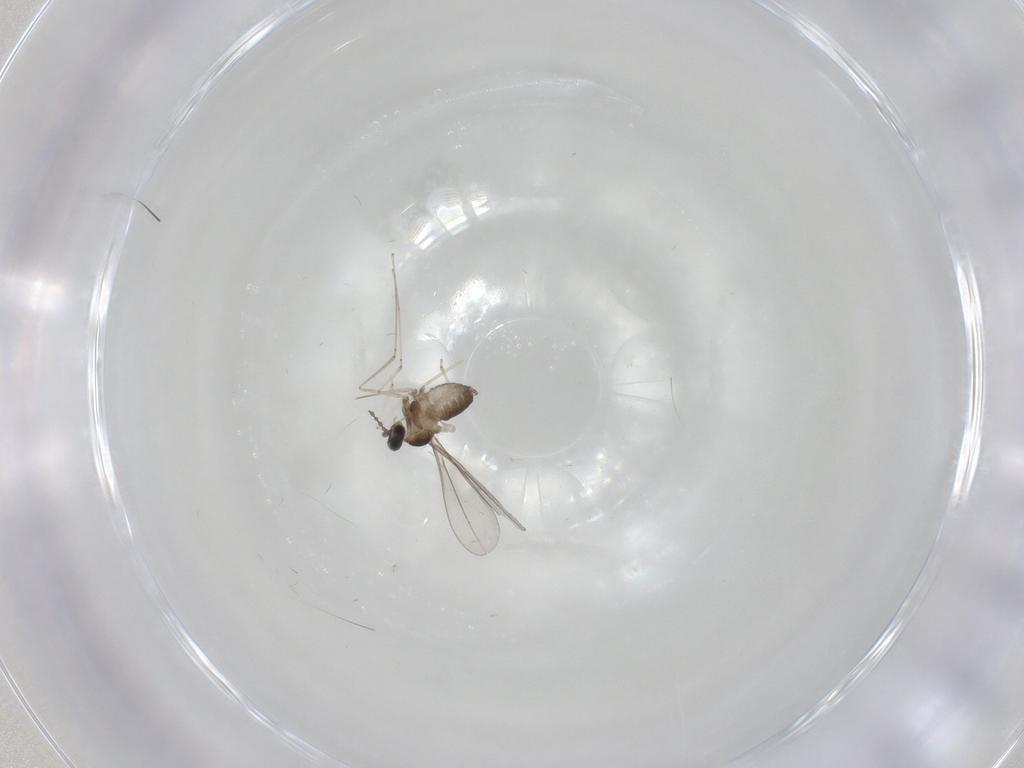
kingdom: Animalia
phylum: Arthropoda
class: Insecta
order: Diptera
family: Cecidomyiidae
